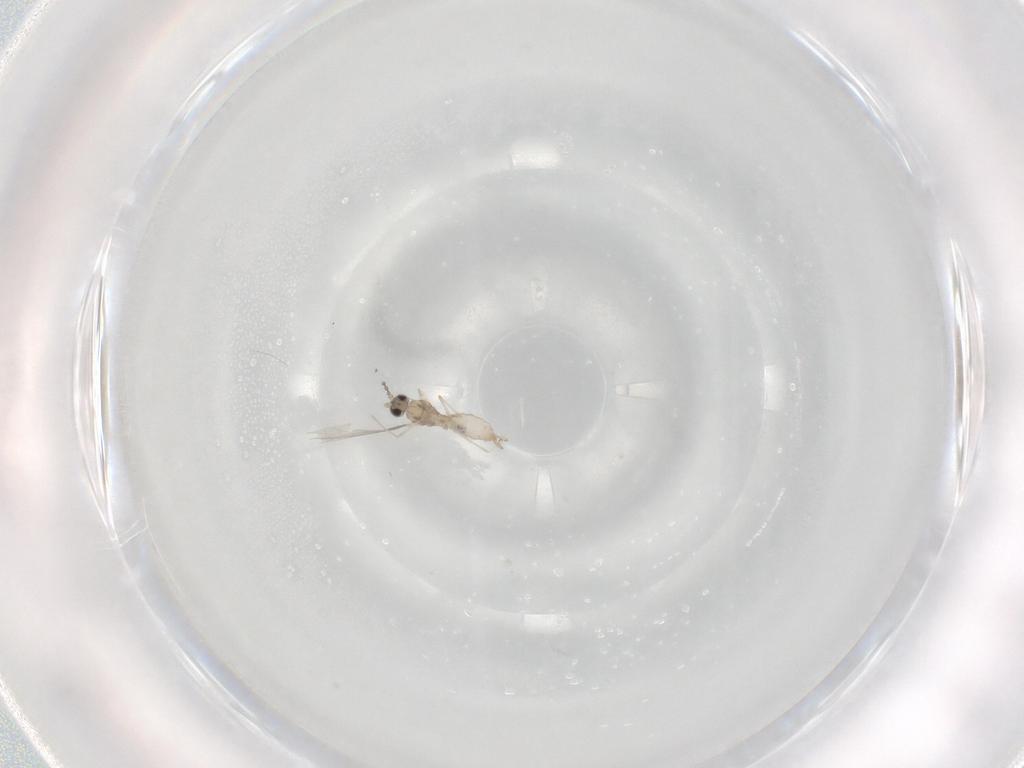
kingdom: Animalia
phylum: Arthropoda
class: Insecta
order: Diptera
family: Cecidomyiidae
